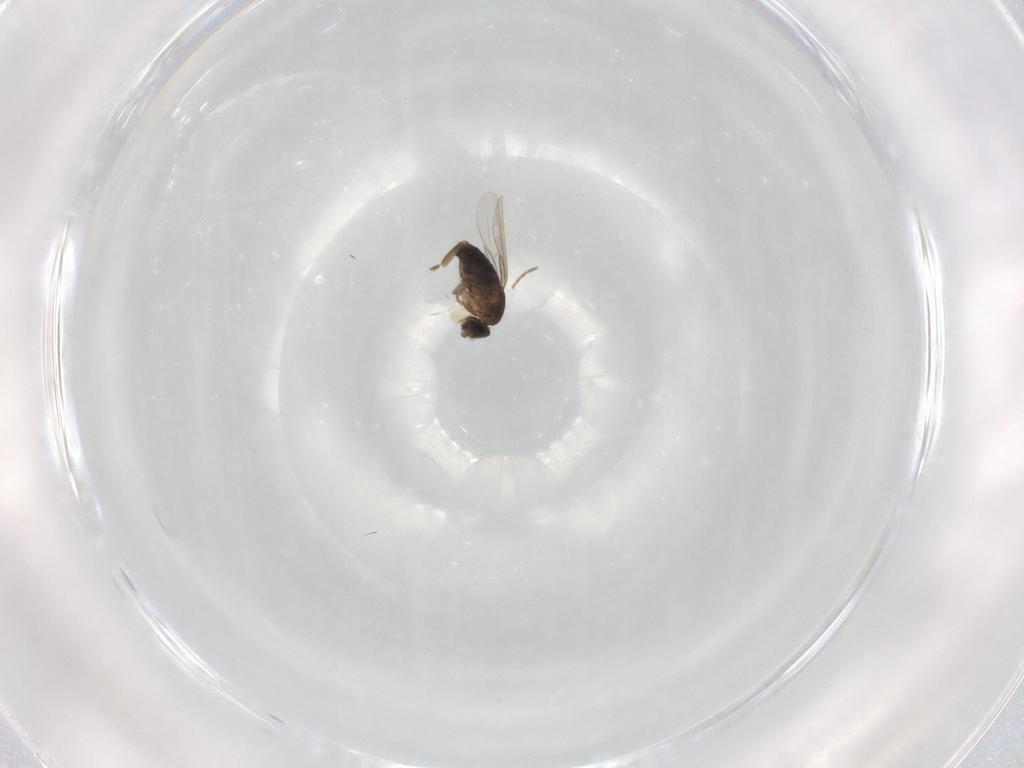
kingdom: Animalia
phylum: Arthropoda
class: Insecta
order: Diptera
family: Phoridae
